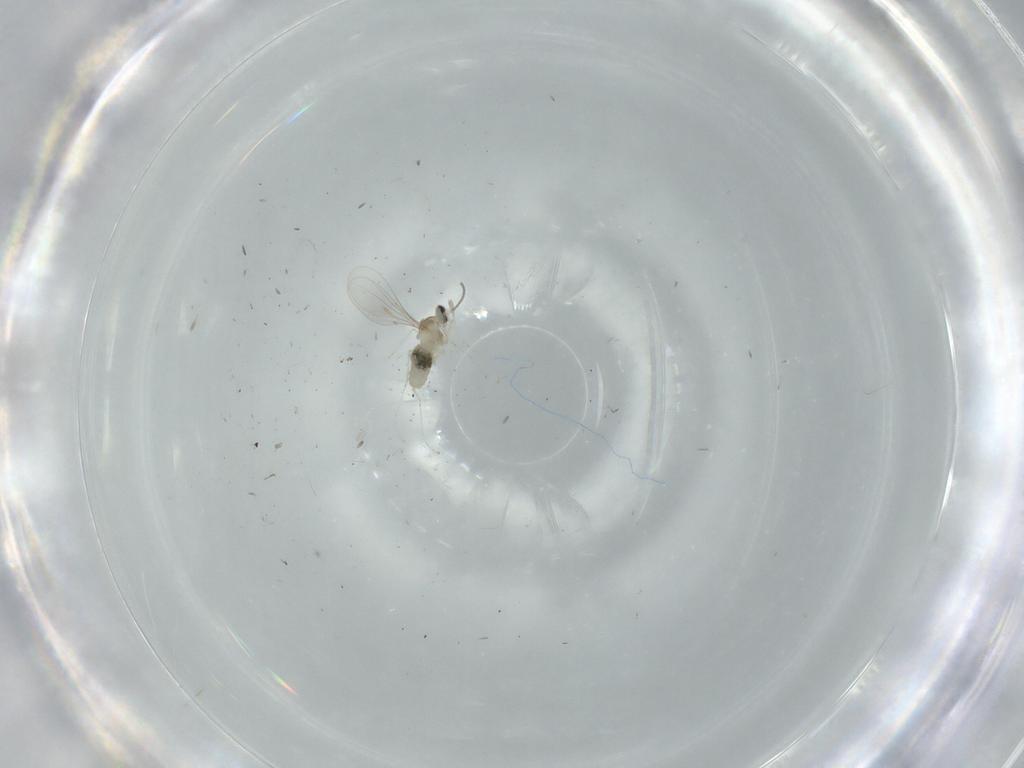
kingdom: Animalia
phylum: Arthropoda
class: Insecta
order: Diptera
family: Cecidomyiidae
